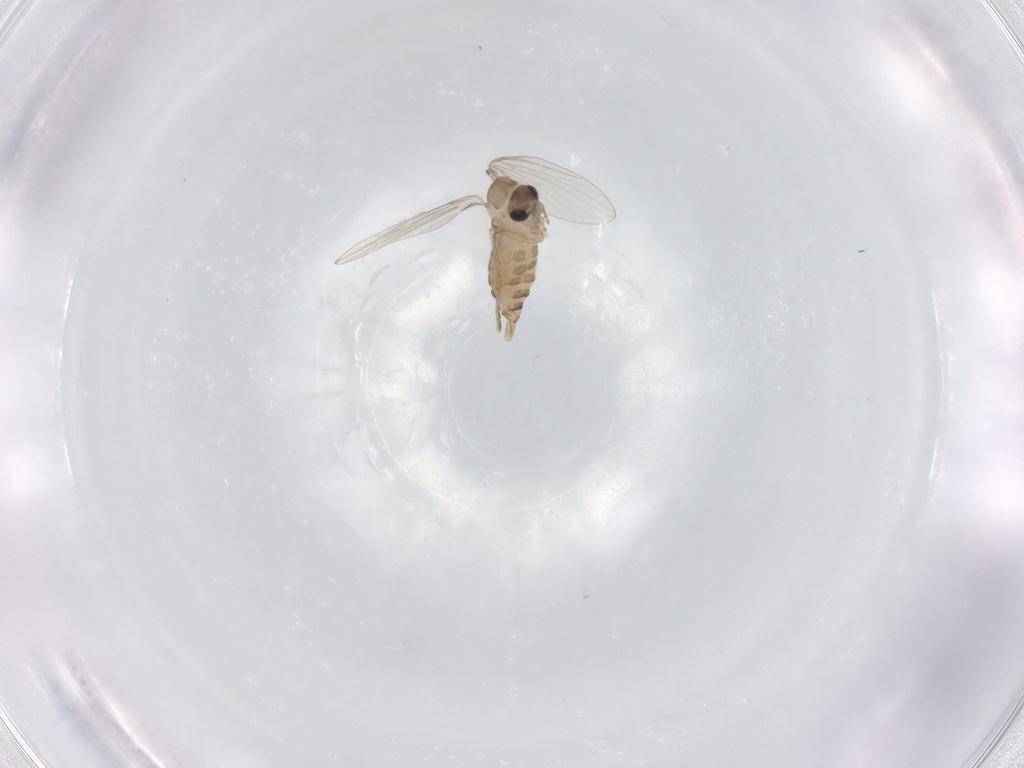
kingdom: Animalia
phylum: Arthropoda
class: Insecta
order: Diptera
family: Psychodidae
